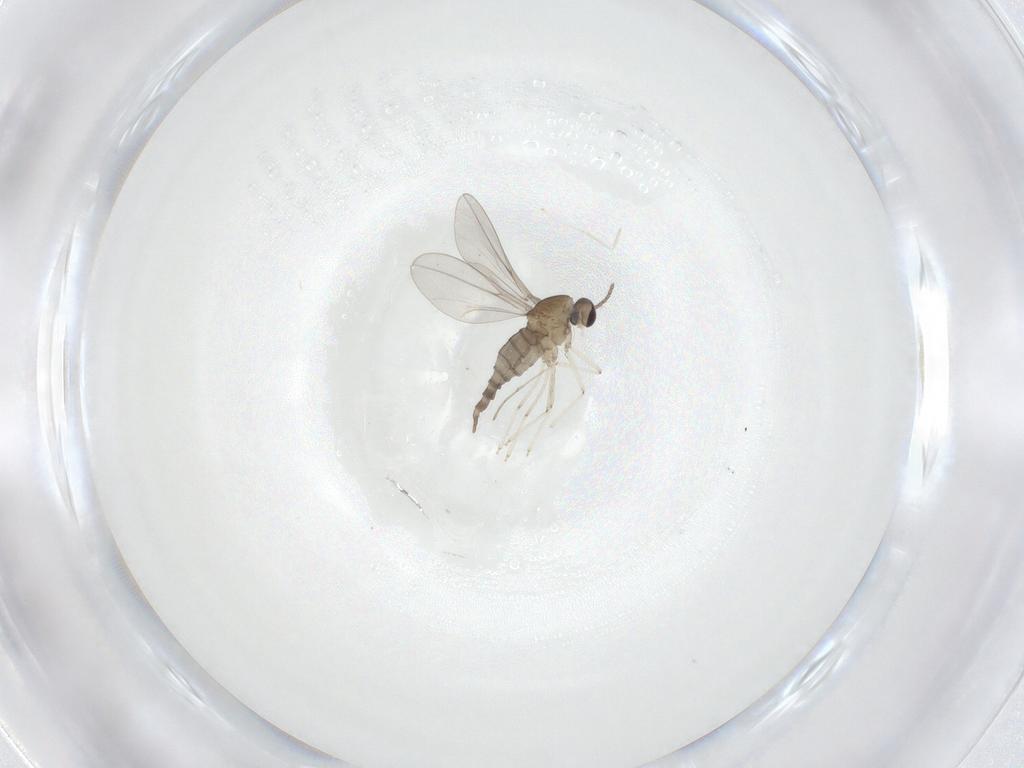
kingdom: Animalia
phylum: Arthropoda
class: Insecta
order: Diptera
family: Cecidomyiidae
